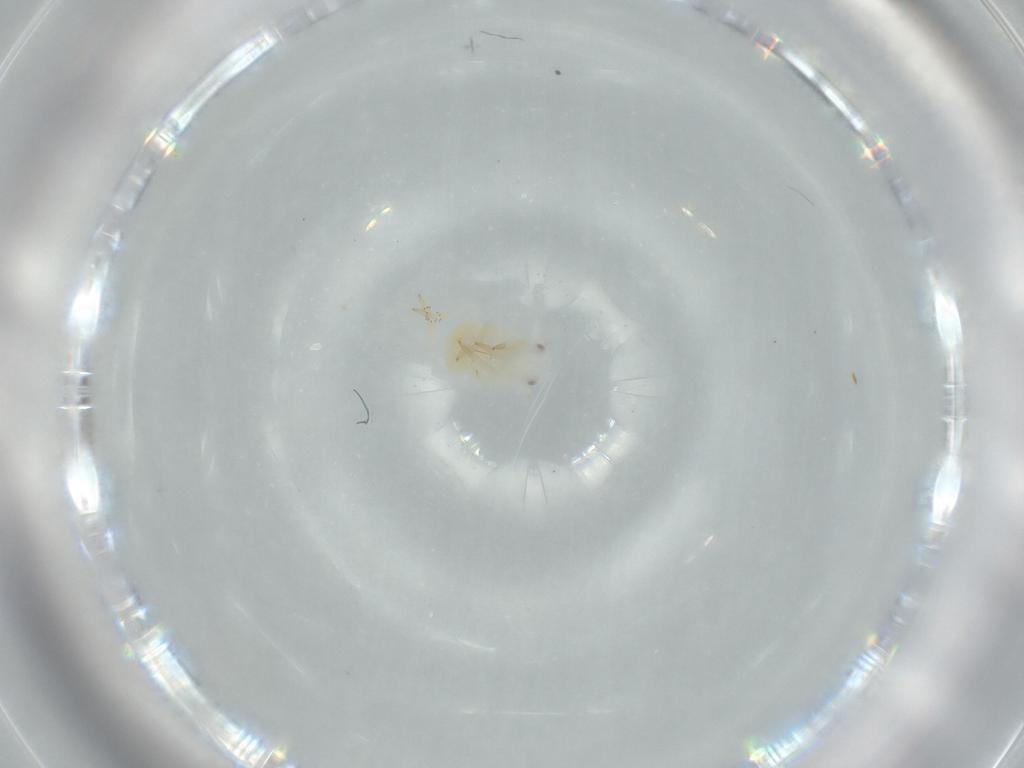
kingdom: Animalia
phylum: Arthropoda
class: Insecta
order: Hemiptera
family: Flatidae
